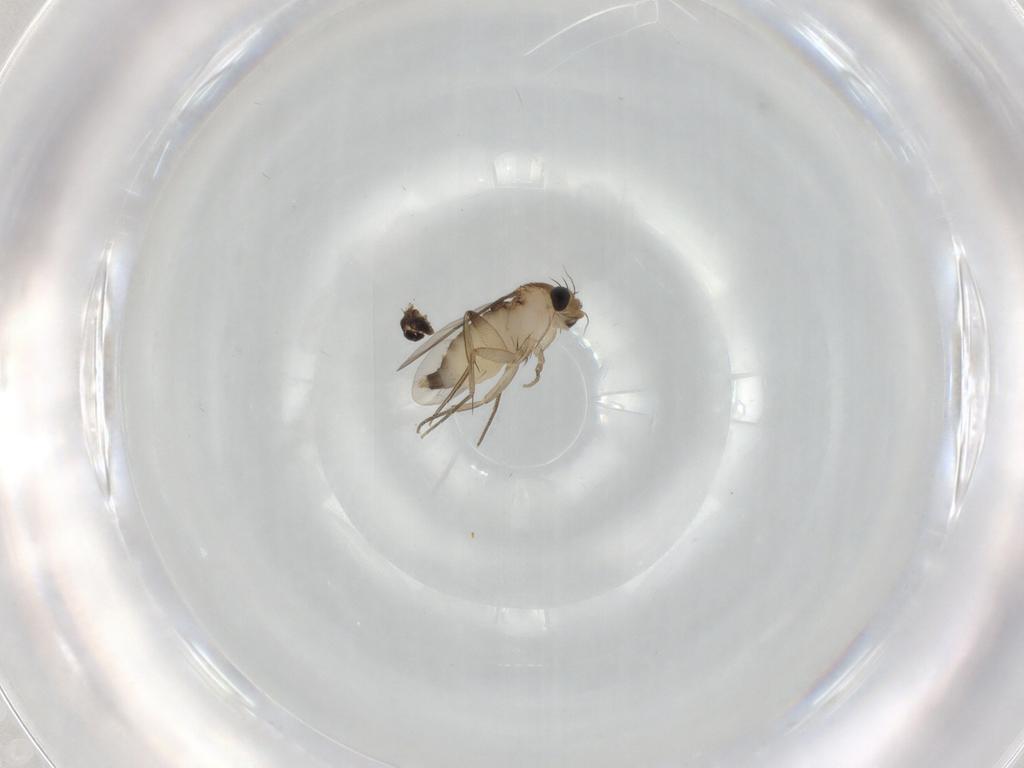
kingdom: Animalia
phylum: Arthropoda
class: Insecta
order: Diptera
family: Phoridae
